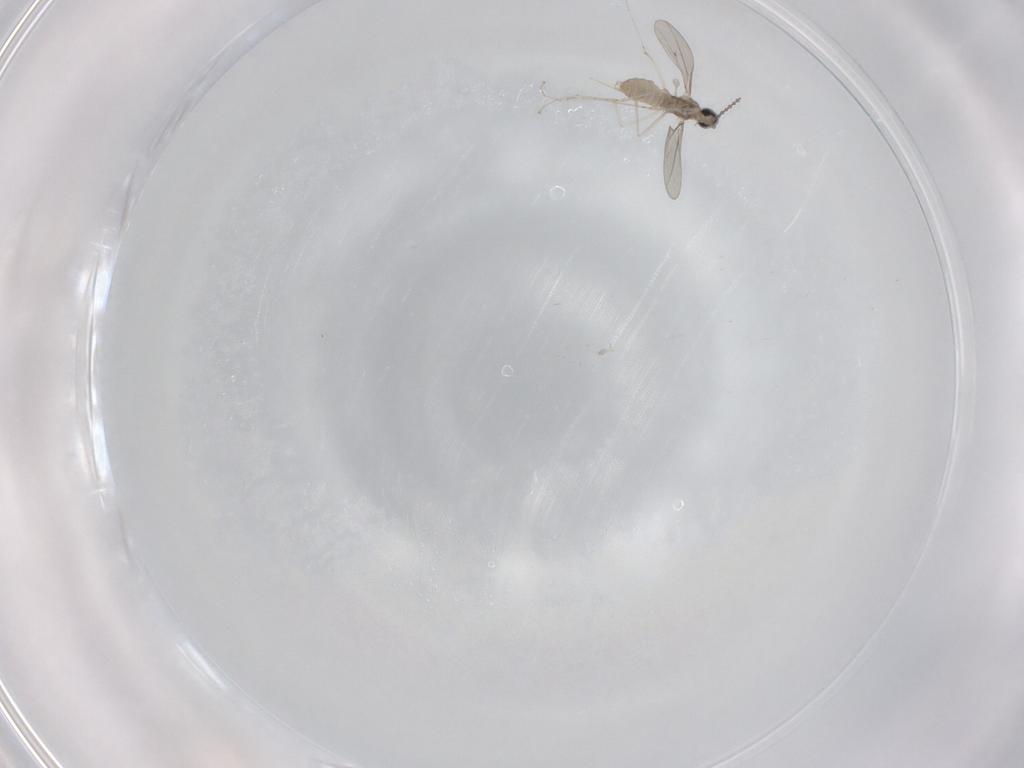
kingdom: Animalia
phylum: Arthropoda
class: Insecta
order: Diptera
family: Cecidomyiidae
